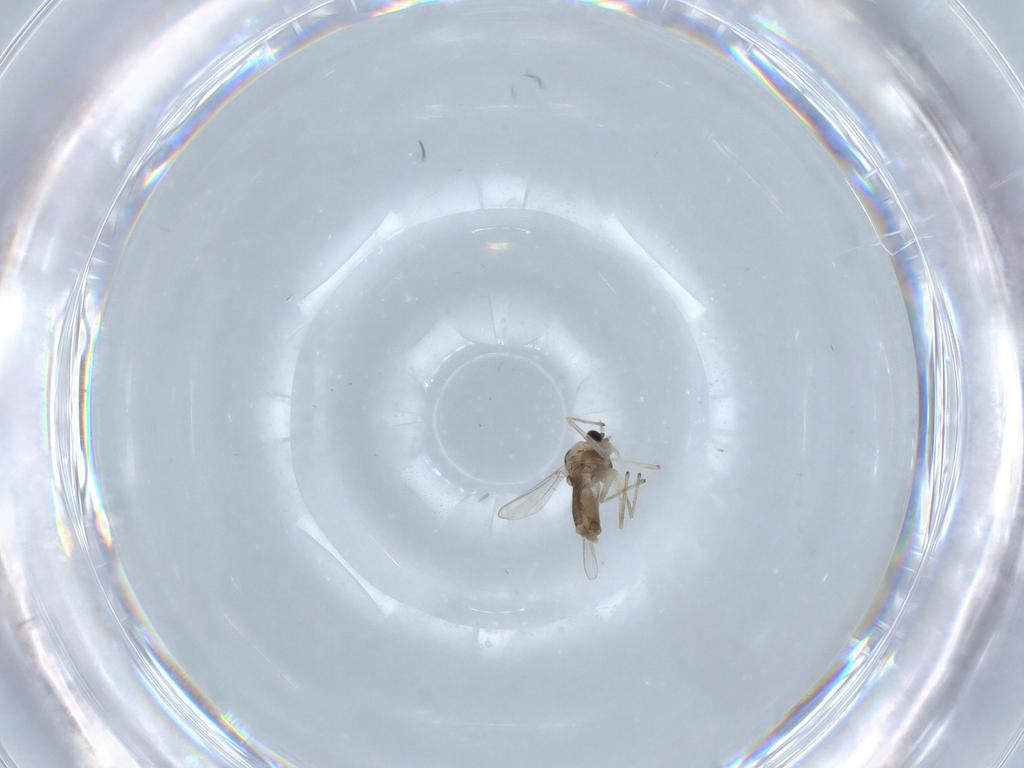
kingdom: Animalia
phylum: Arthropoda
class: Insecta
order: Diptera
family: Chironomidae
